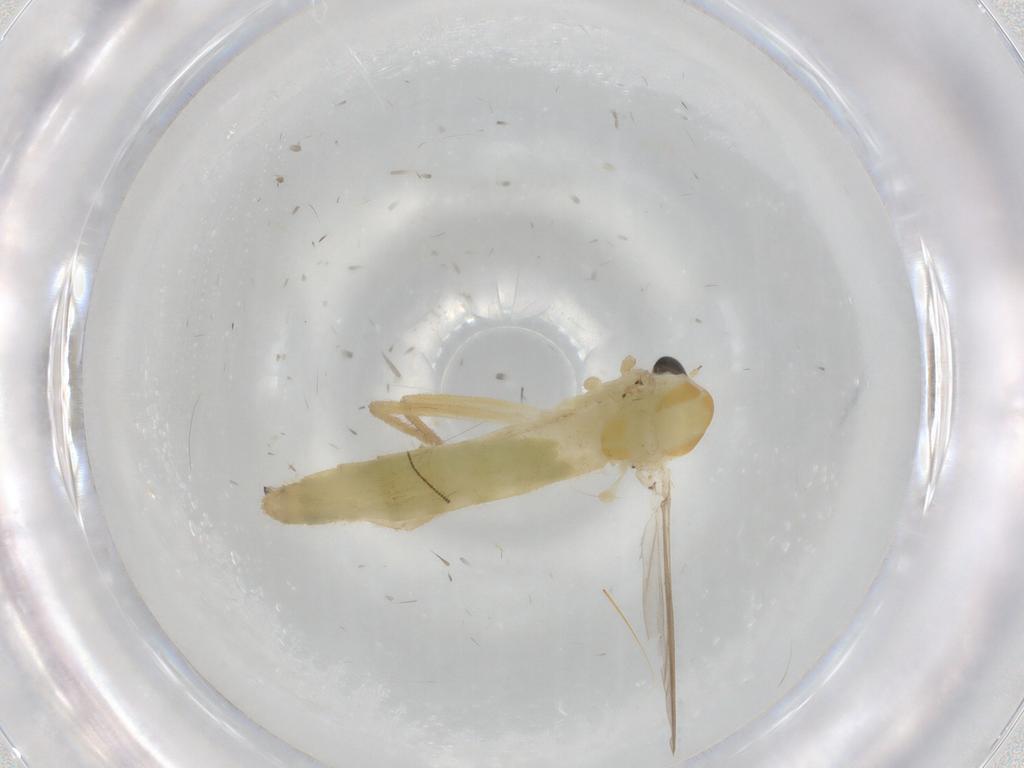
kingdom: Animalia
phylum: Arthropoda
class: Insecta
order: Diptera
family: Chironomidae
